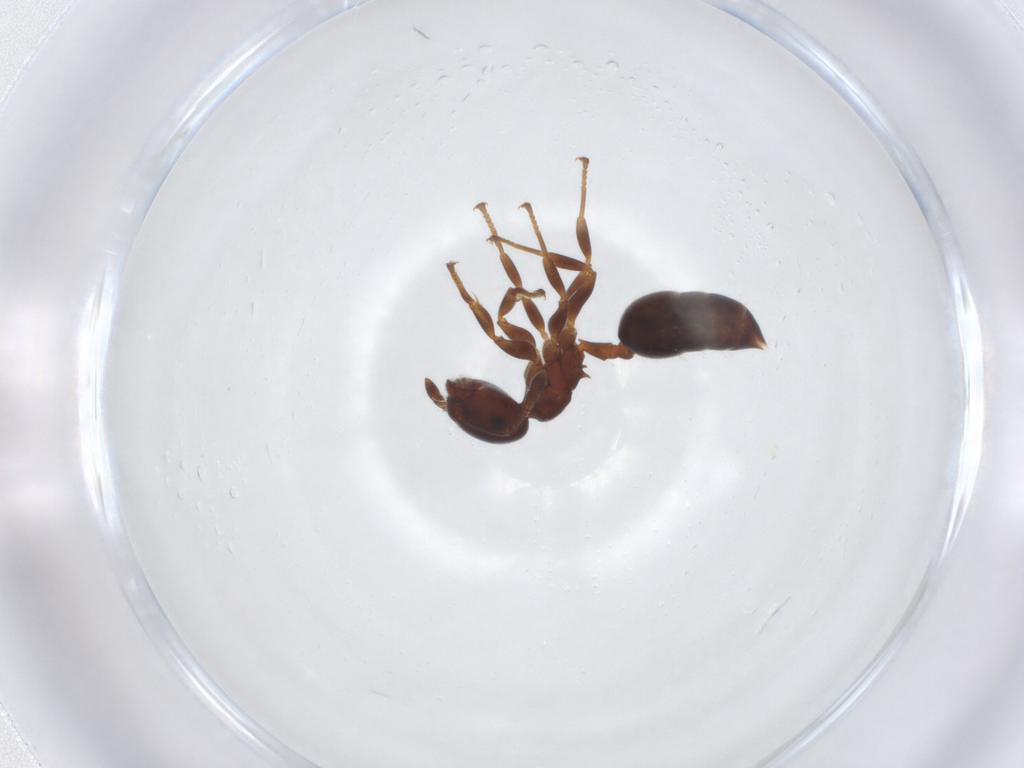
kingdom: Animalia
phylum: Arthropoda
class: Insecta
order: Hymenoptera
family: Formicidae
